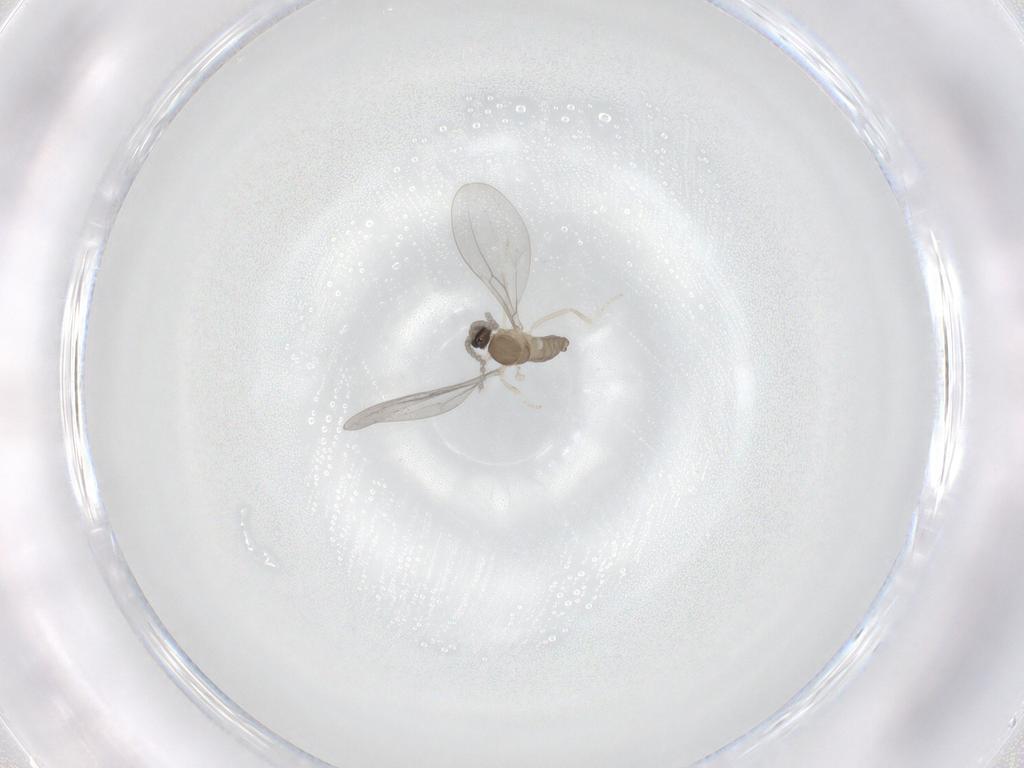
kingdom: Animalia
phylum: Arthropoda
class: Insecta
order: Diptera
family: Cecidomyiidae
